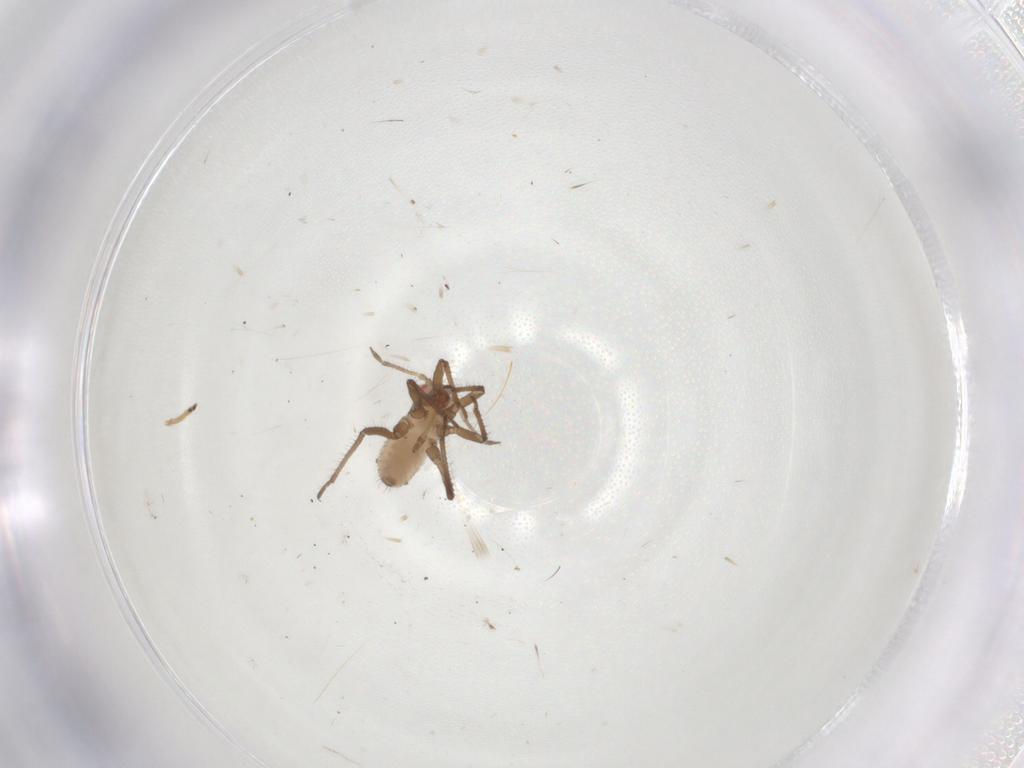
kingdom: Animalia
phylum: Arthropoda
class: Insecta
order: Hemiptera
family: Lachnidae
